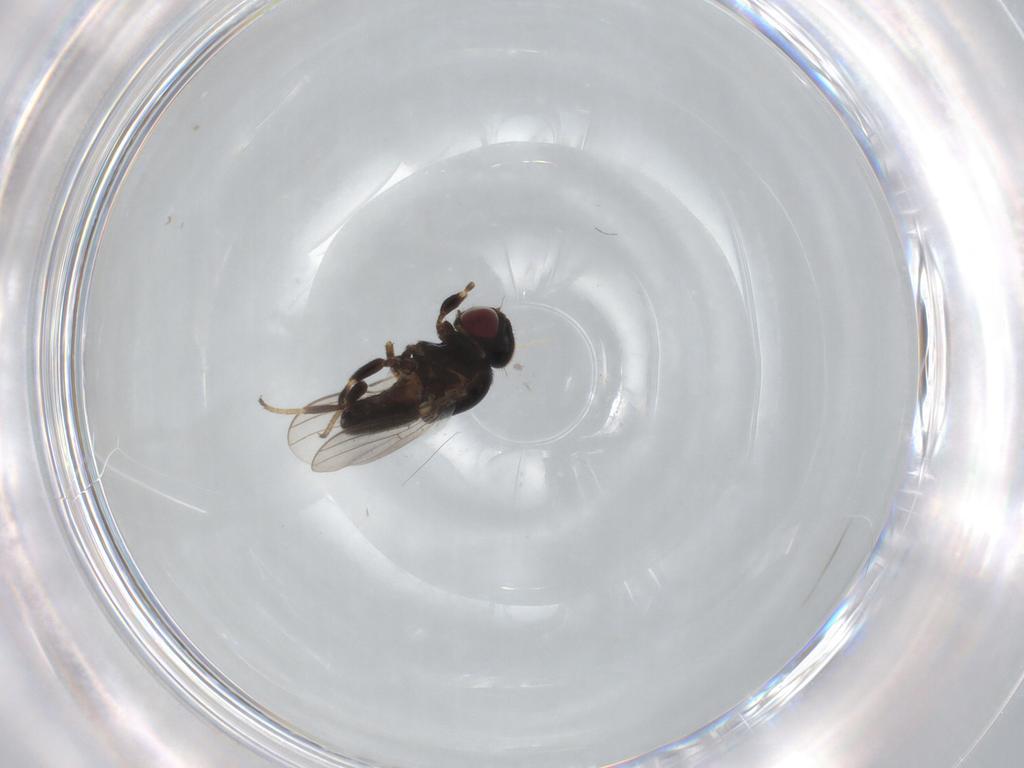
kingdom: Animalia
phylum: Arthropoda
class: Insecta
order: Diptera
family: Chloropidae
